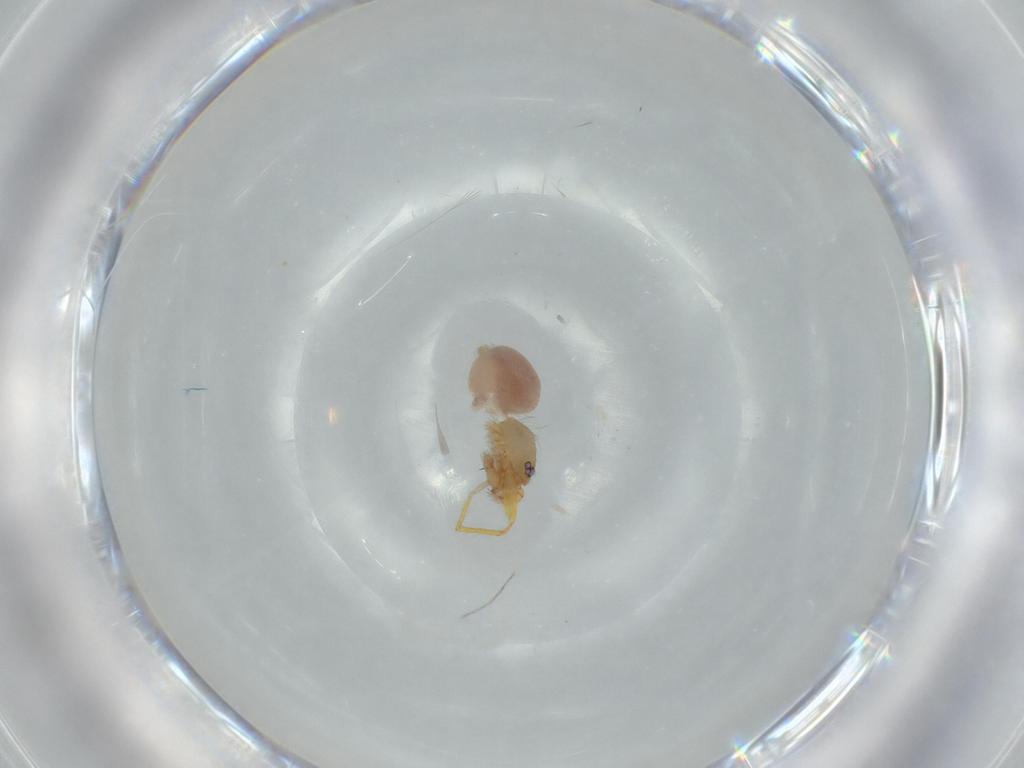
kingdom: Animalia
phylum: Arthropoda
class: Arachnida
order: Araneae
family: Oonopidae
